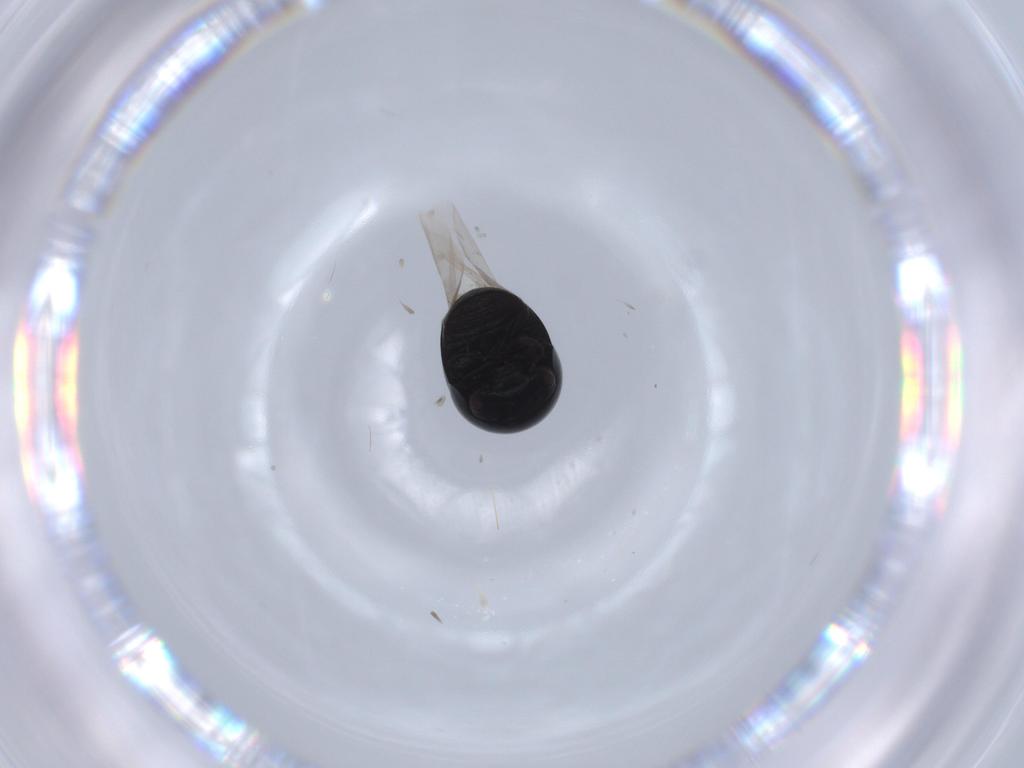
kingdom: Animalia
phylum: Arthropoda
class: Insecta
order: Coleoptera
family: Cybocephalidae
